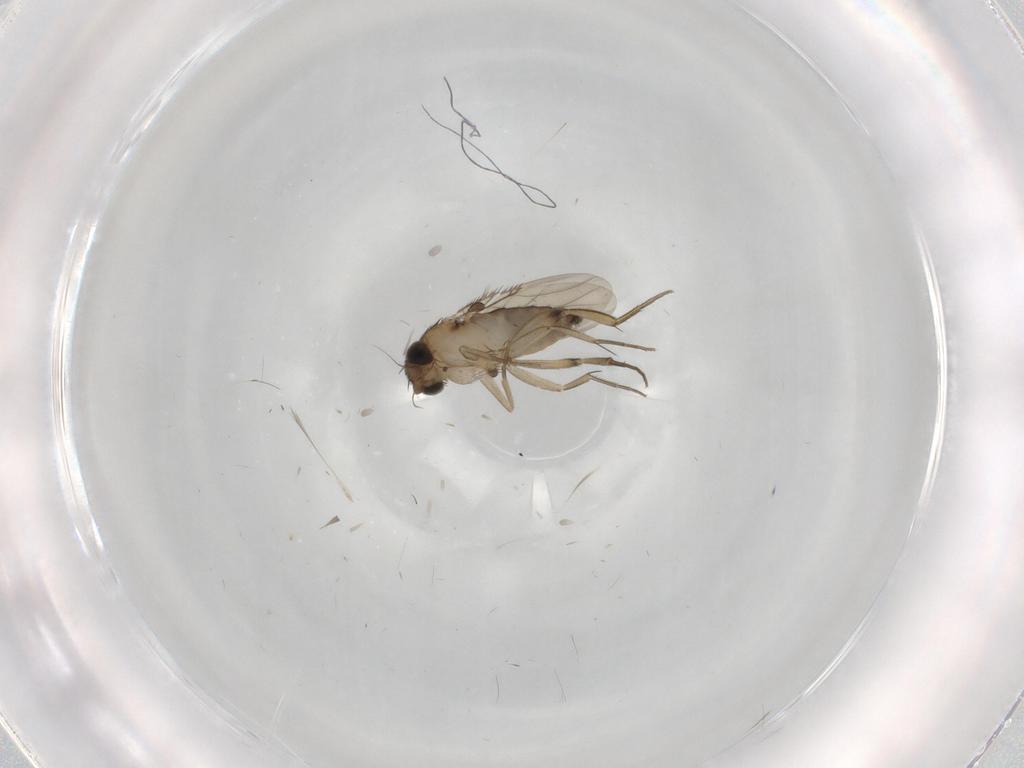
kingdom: Animalia
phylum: Arthropoda
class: Insecta
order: Diptera
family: Phoridae
